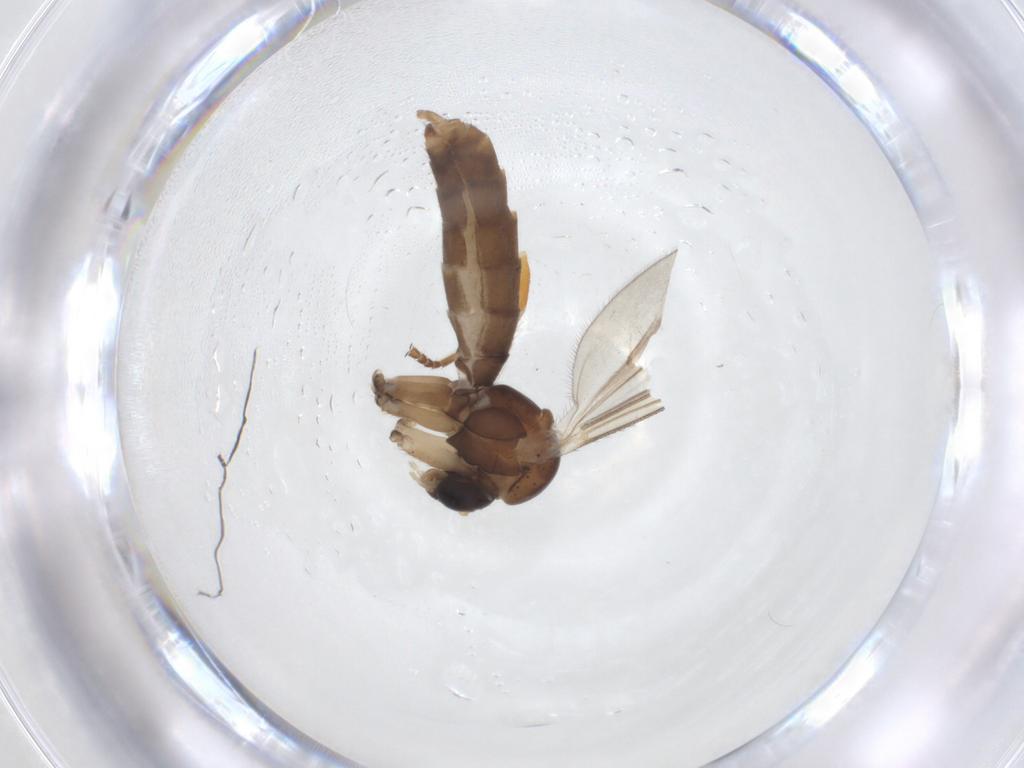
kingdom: Animalia
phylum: Arthropoda
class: Insecta
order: Diptera
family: Mycetophilidae
